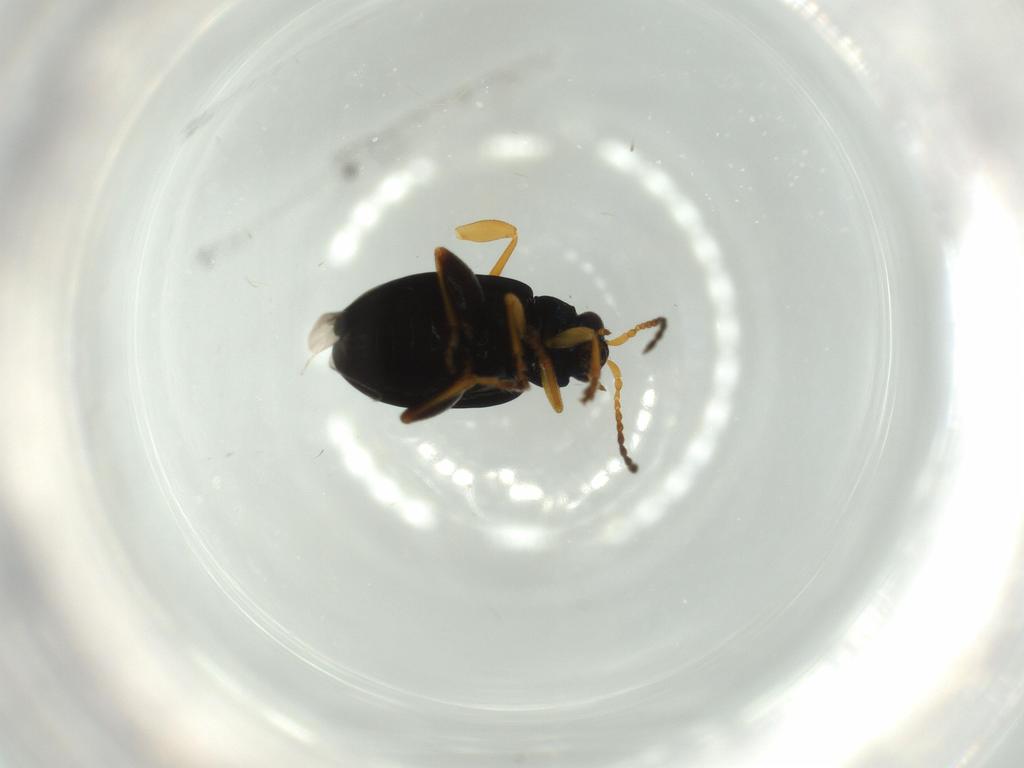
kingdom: Animalia
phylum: Arthropoda
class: Insecta
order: Coleoptera
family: Chrysomelidae
